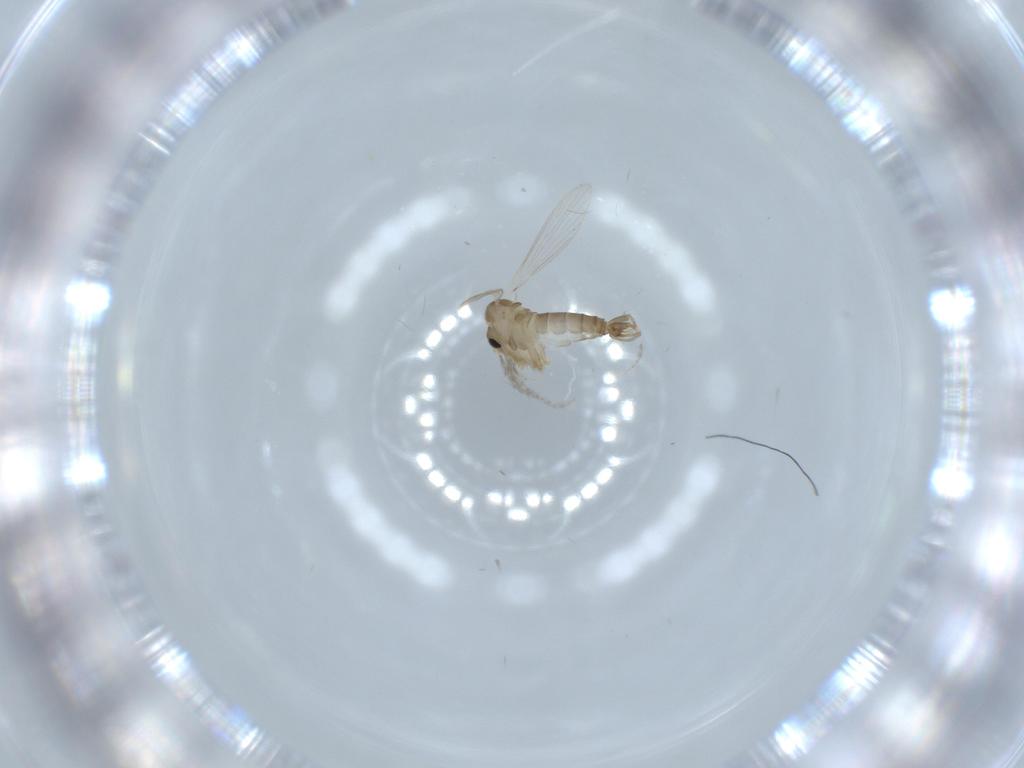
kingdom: Animalia
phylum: Arthropoda
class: Insecta
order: Diptera
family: Psychodidae
